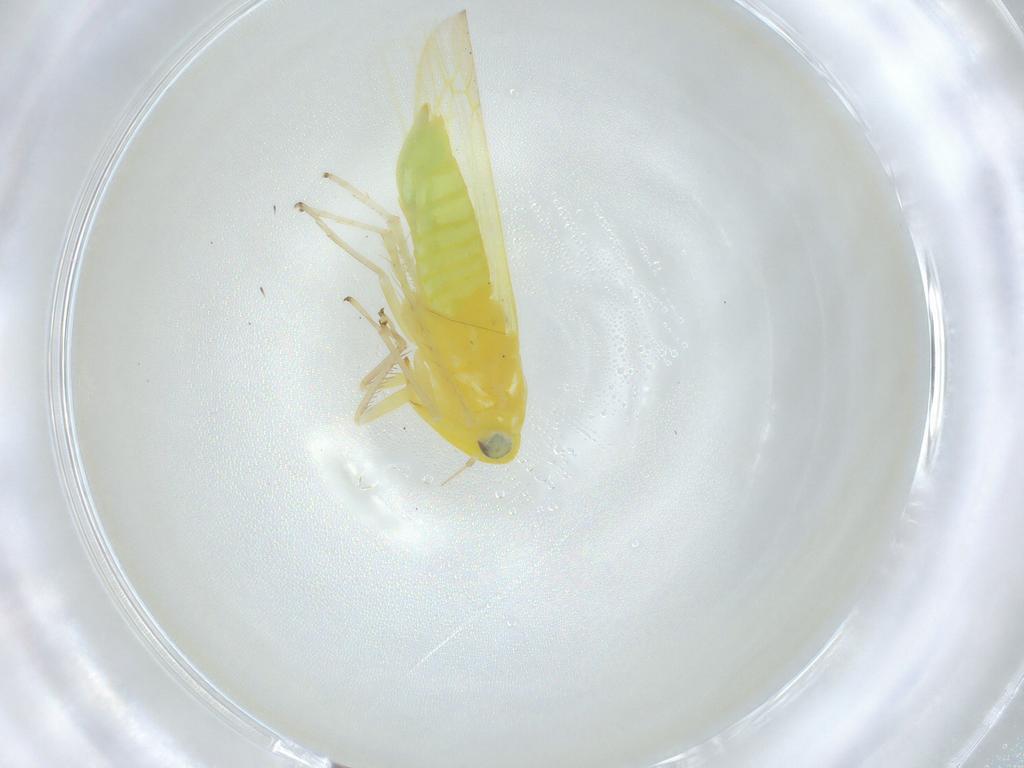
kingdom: Animalia
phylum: Arthropoda
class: Insecta
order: Hemiptera
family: Cicadellidae
